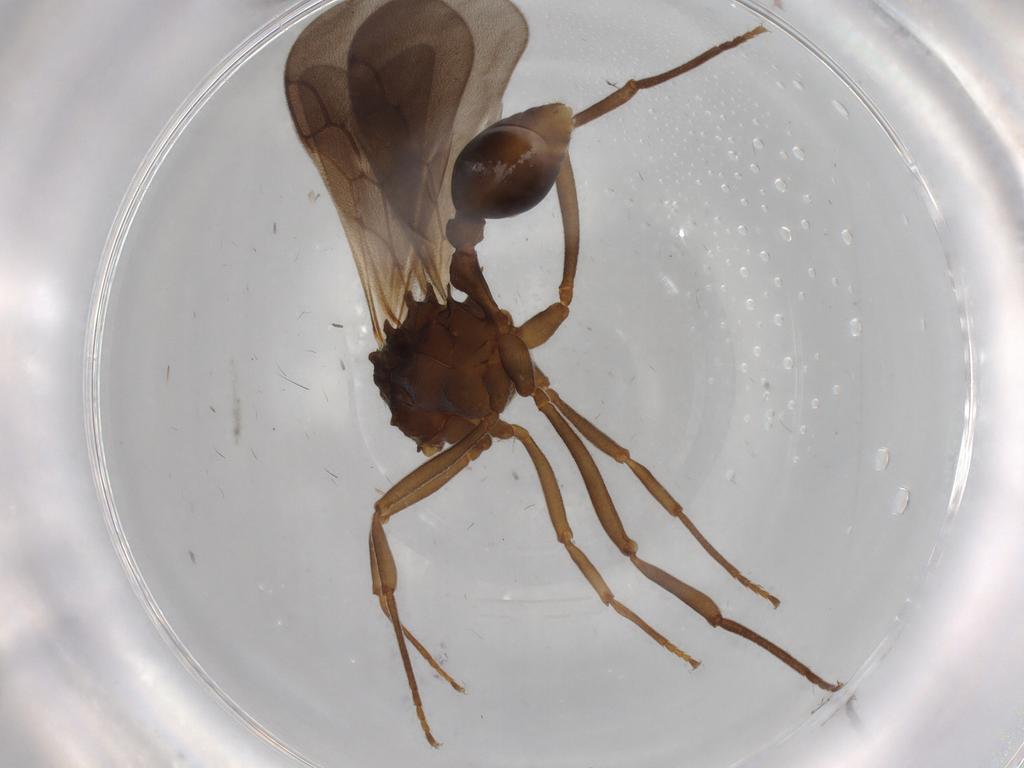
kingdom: Animalia
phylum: Arthropoda
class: Insecta
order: Hymenoptera
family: Formicidae
